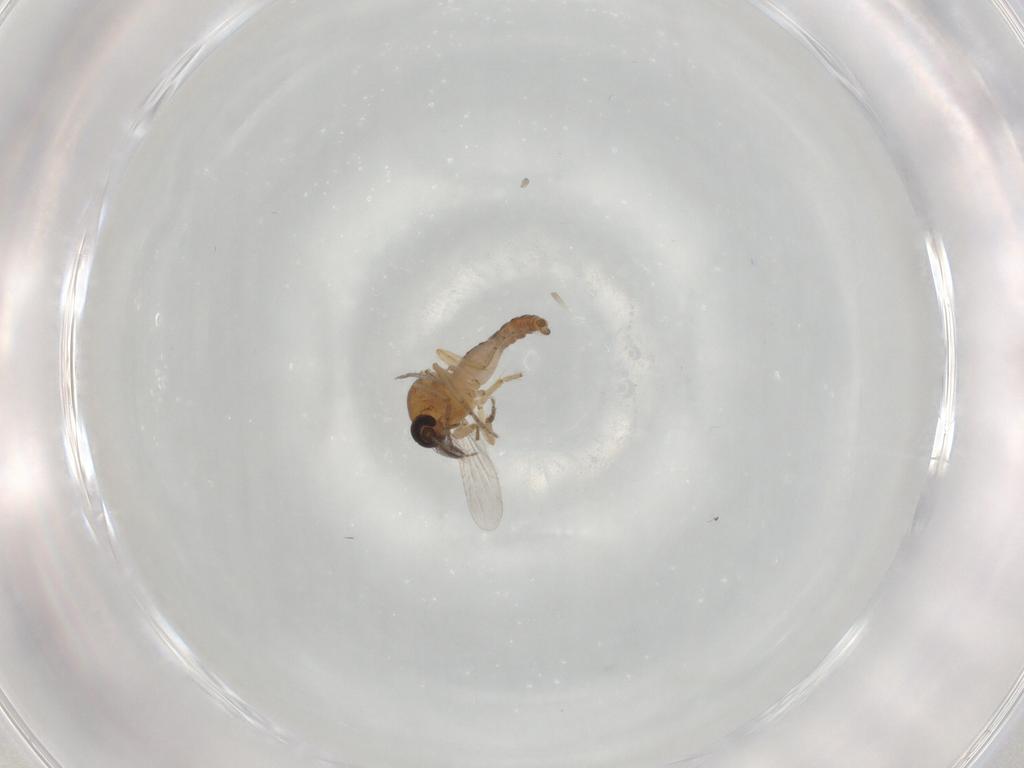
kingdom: Animalia
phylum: Arthropoda
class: Insecta
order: Diptera
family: Ceratopogonidae
